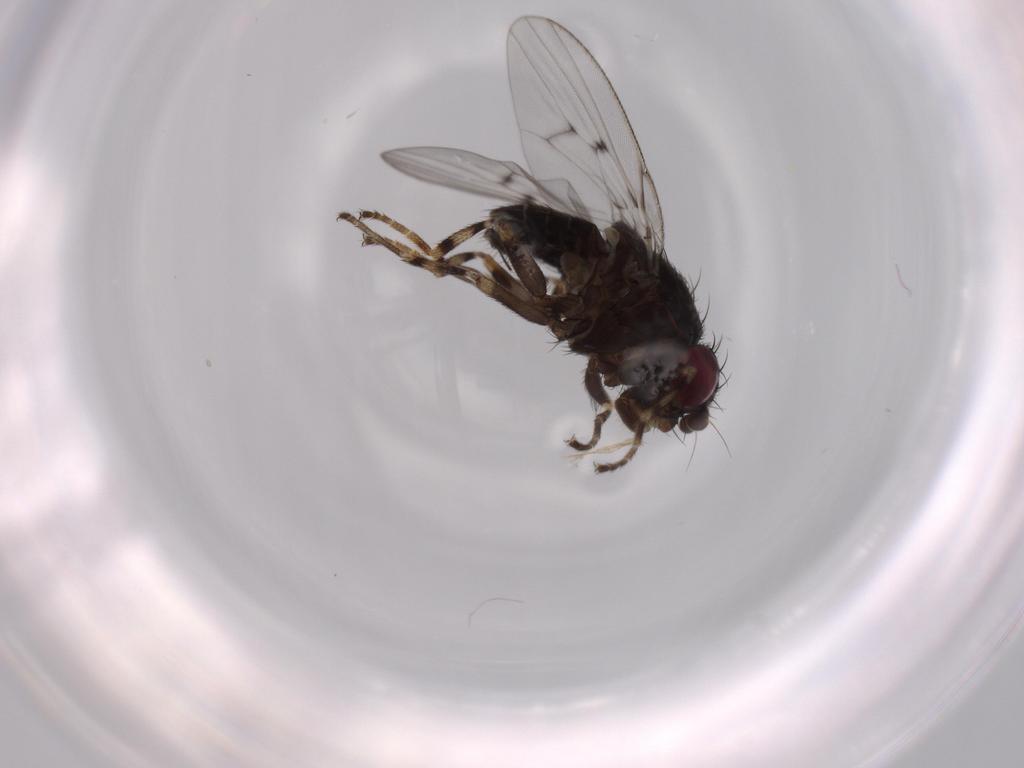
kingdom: Animalia
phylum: Arthropoda
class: Insecta
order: Diptera
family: Odiniidae
